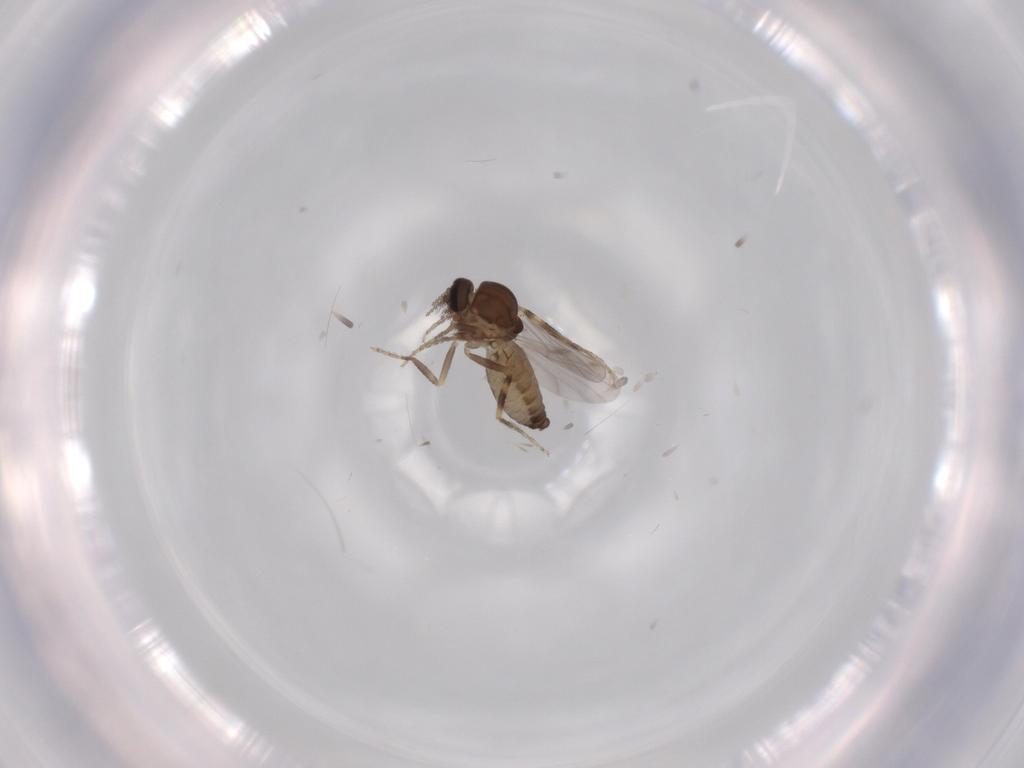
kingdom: Animalia
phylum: Arthropoda
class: Insecta
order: Diptera
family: Ceratopogonidae
